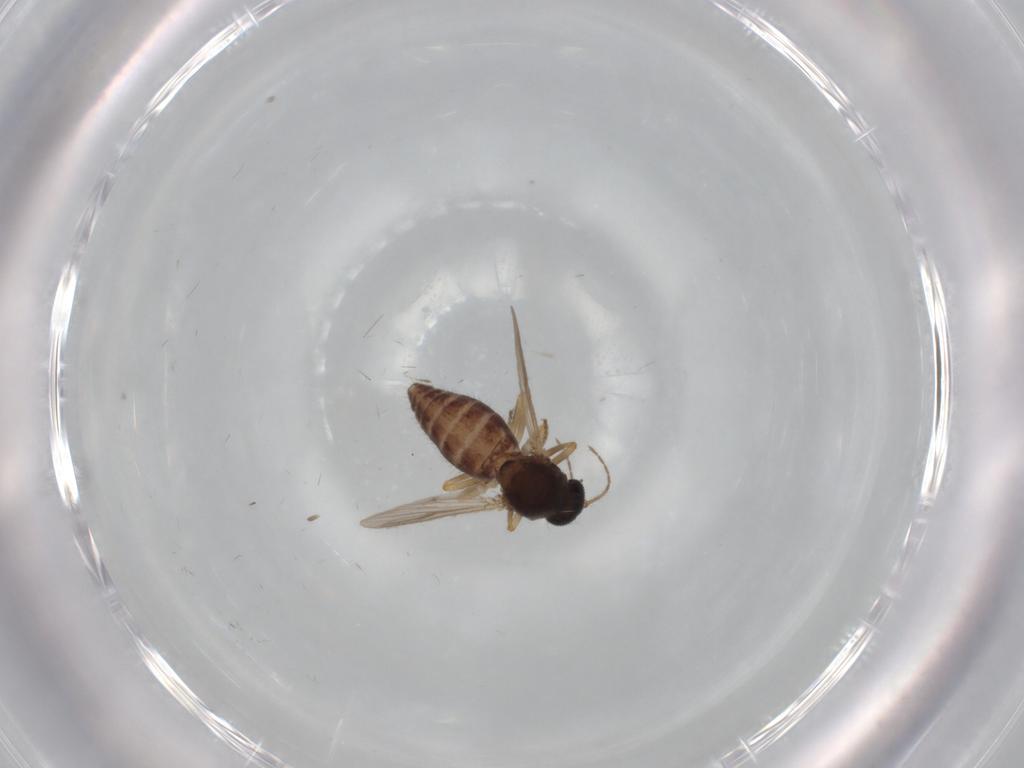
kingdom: Animalia
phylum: Arthropoda
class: Insecta
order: Diptera
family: Ceratopogonidae
